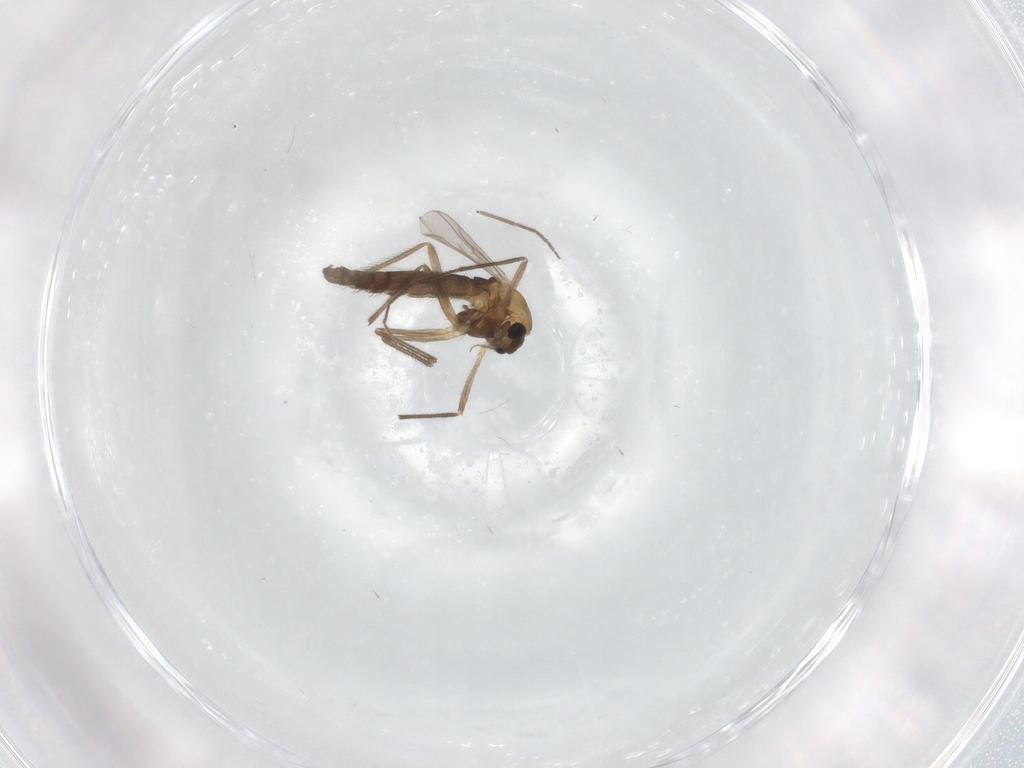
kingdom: Animalia
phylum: Arthropoda
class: Insecta
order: Diptera
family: Chironomidae
